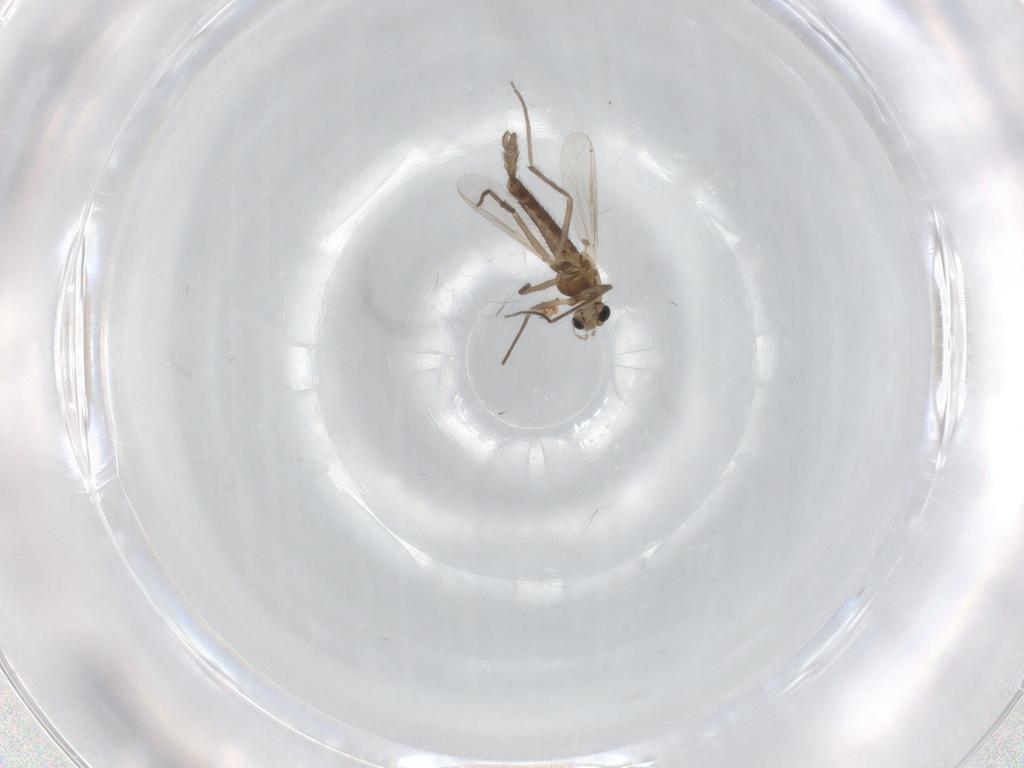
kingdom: Animalia
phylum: Arthropoda
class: Insecta
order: Diptera
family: Chironomidae
